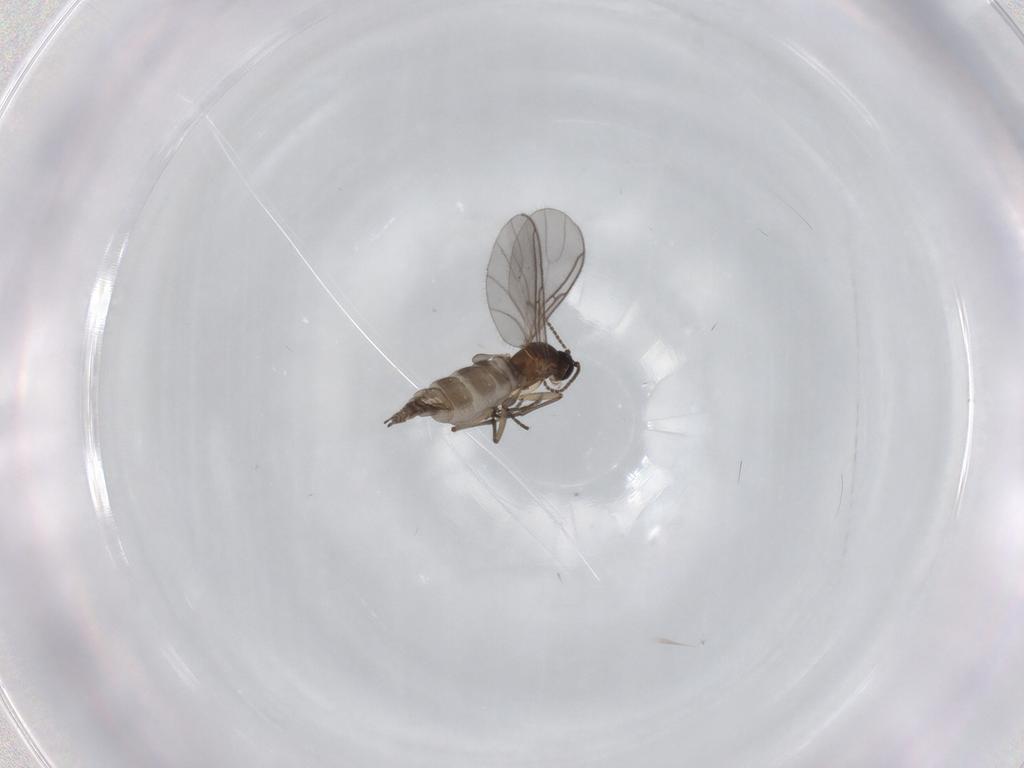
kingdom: Animalia
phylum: Arthropoda
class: Insecta
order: Diptera
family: Sciaridae
